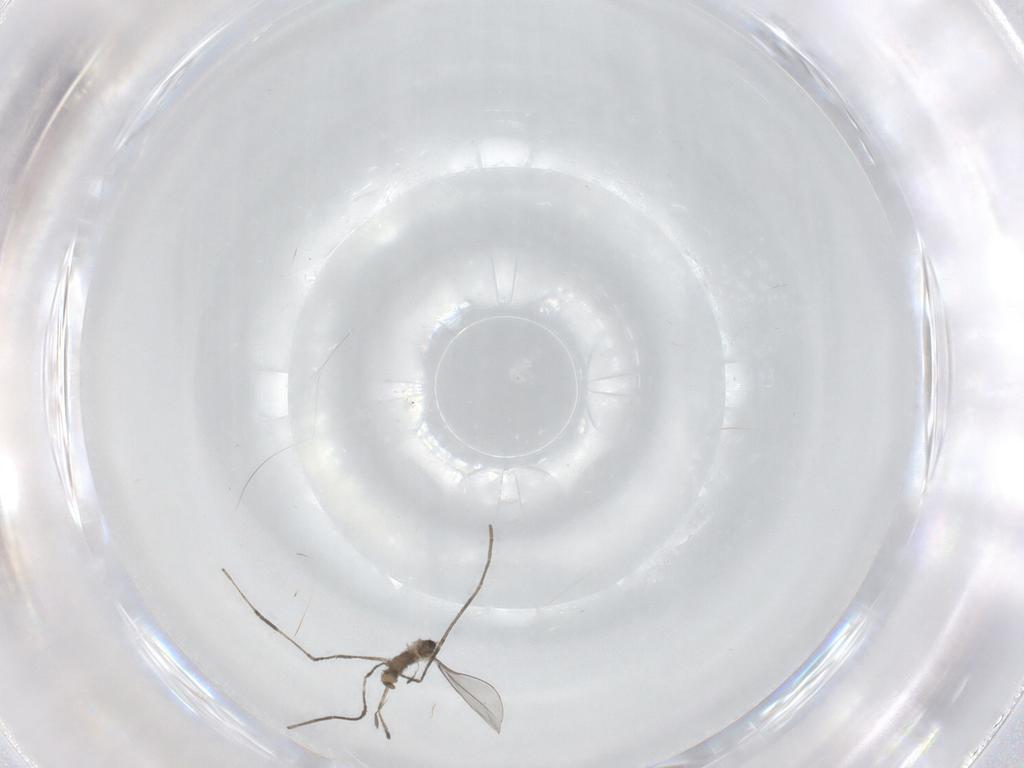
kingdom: Animalia
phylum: Arthropoda
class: Insecta
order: Diptera
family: Cecidomyiidae
